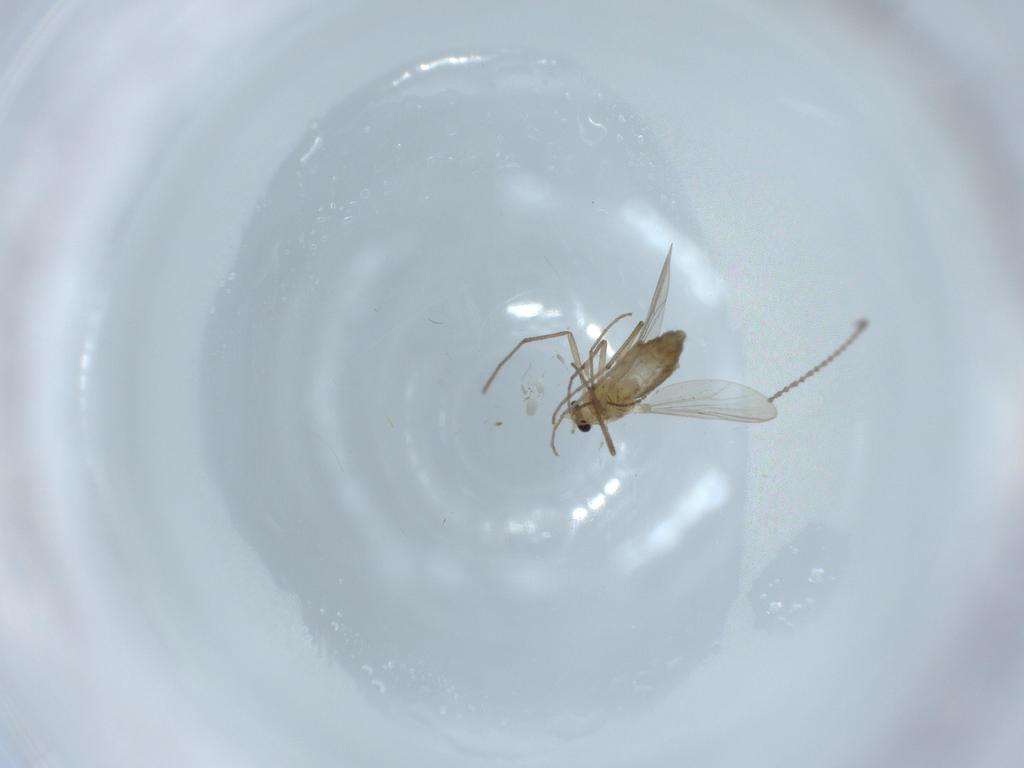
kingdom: Animalia
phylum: Arthropoda
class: Insecta
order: Diptera
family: Chironomidae
